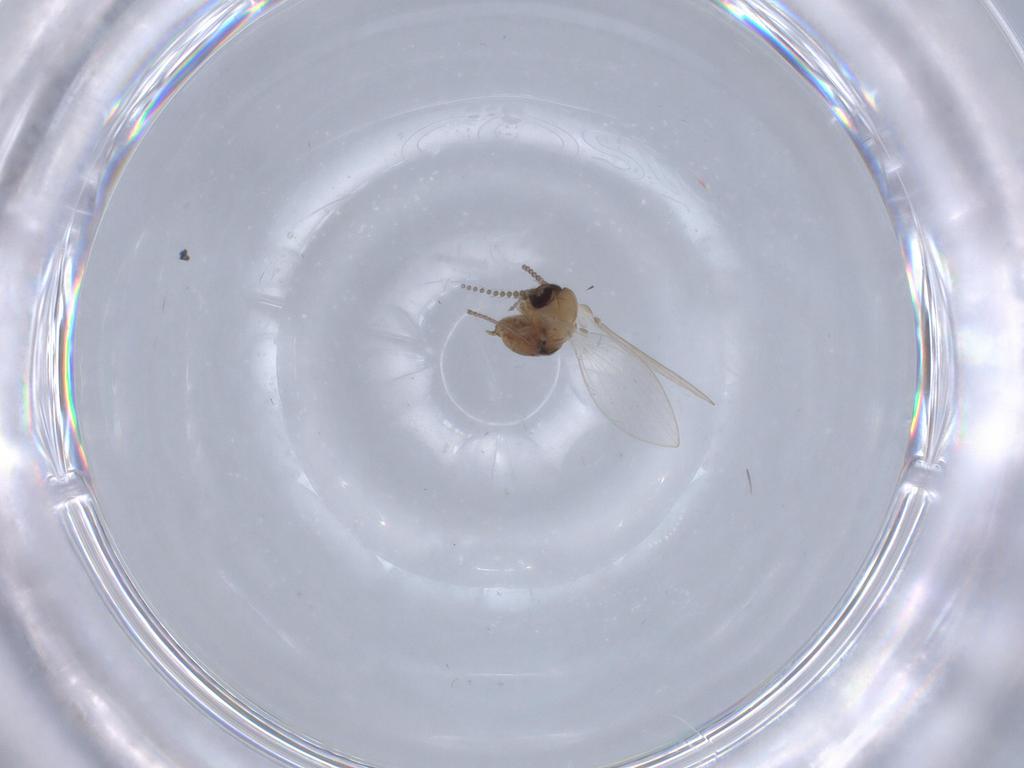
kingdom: Animalia
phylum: Arthropoda
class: Insecta
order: Diptera
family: Psychodidae
